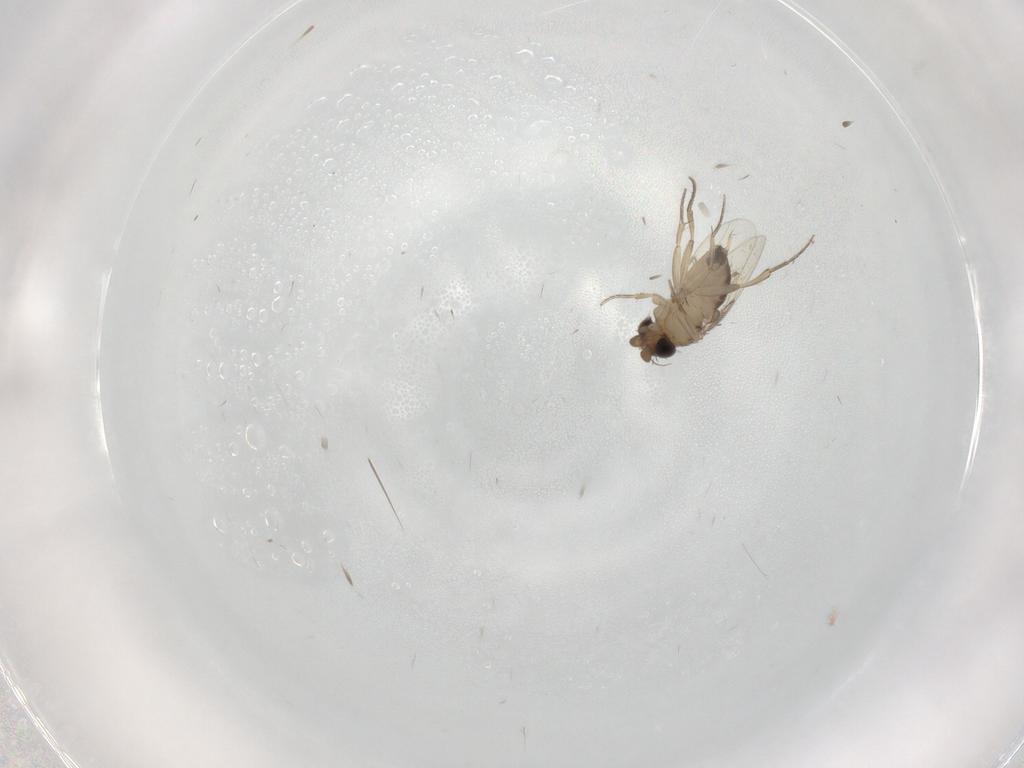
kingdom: Animalia
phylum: Arthropoda
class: Insecta
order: Diptera
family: Phoridae
